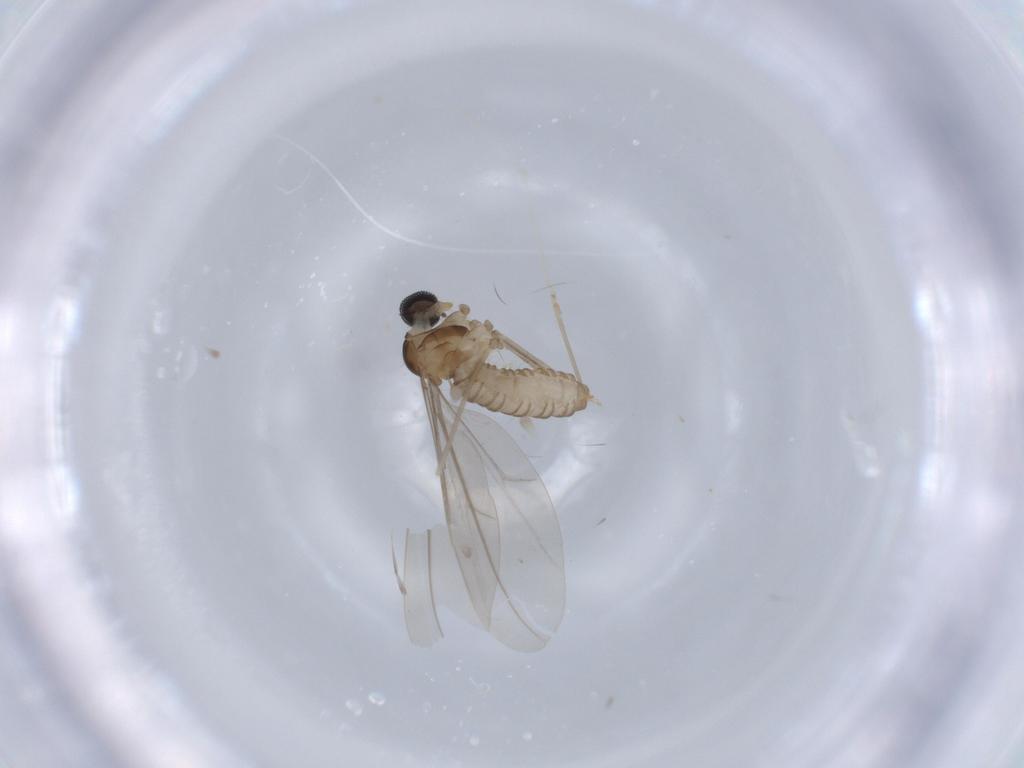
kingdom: Animalia
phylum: Arthropoda
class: Insecta
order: Diptera
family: Cecidomyiidae
